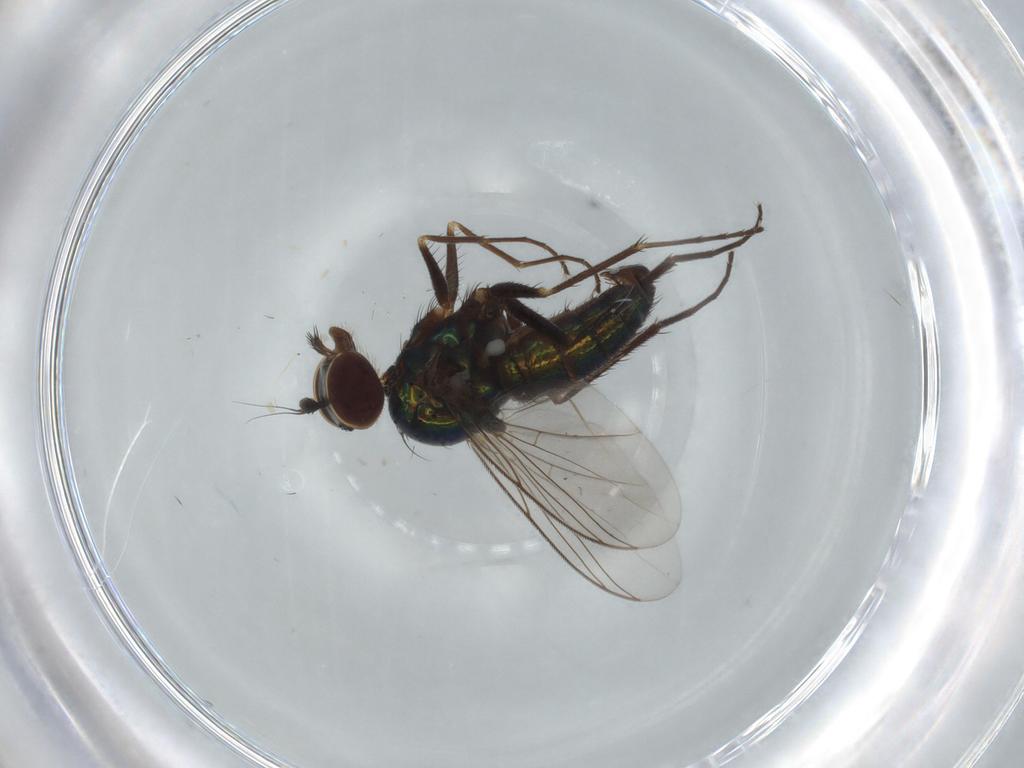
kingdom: Animalia
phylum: Arthropoda
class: Insecta
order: Diptera
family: Dolichopodidae
